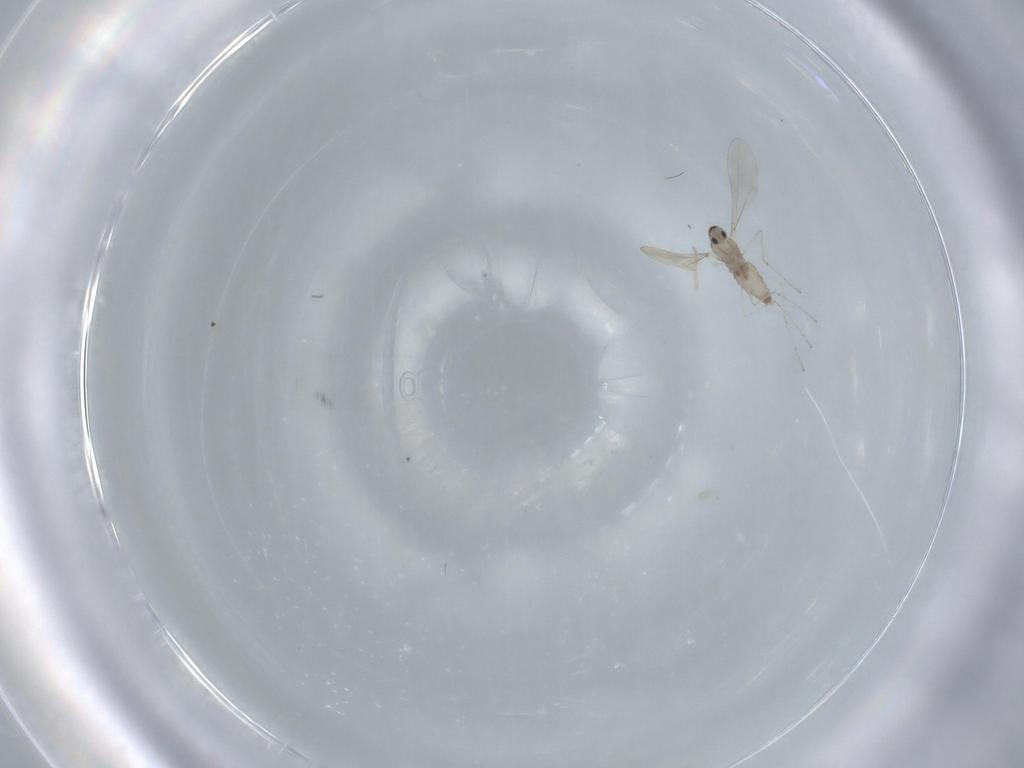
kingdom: Animalia
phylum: Arthropoda
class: Insecta
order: Diptera
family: Cecidomyiidae
